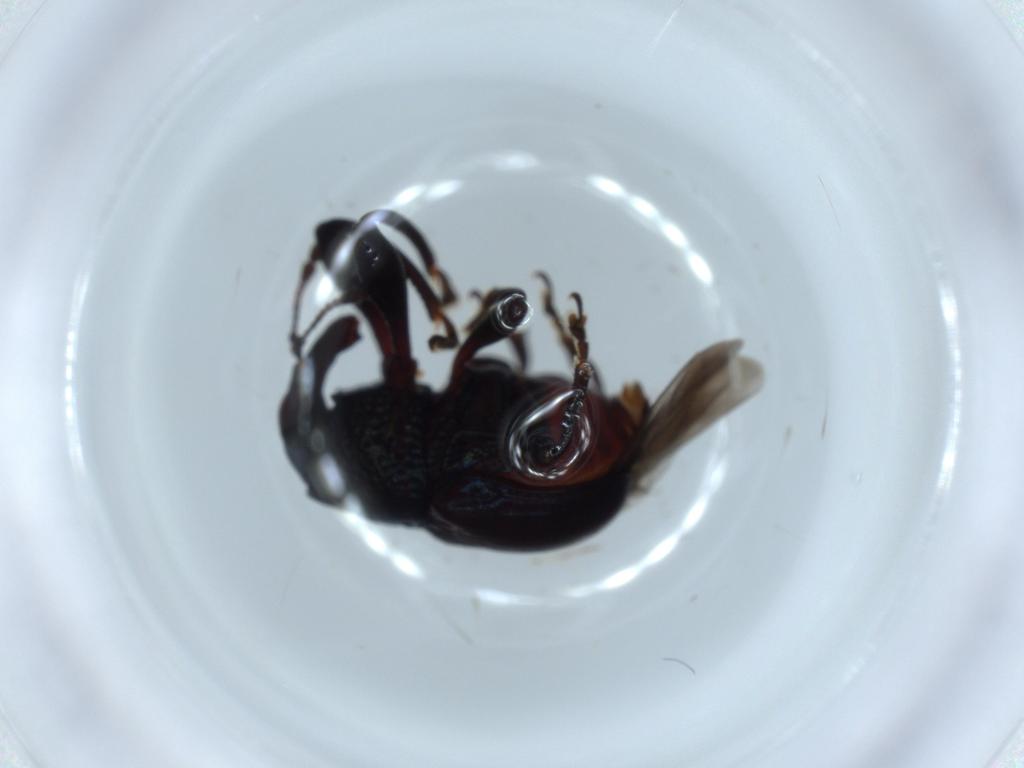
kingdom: Animalia
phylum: Arthropoda
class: Insecta
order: Coleoptera
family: Attelabidae
